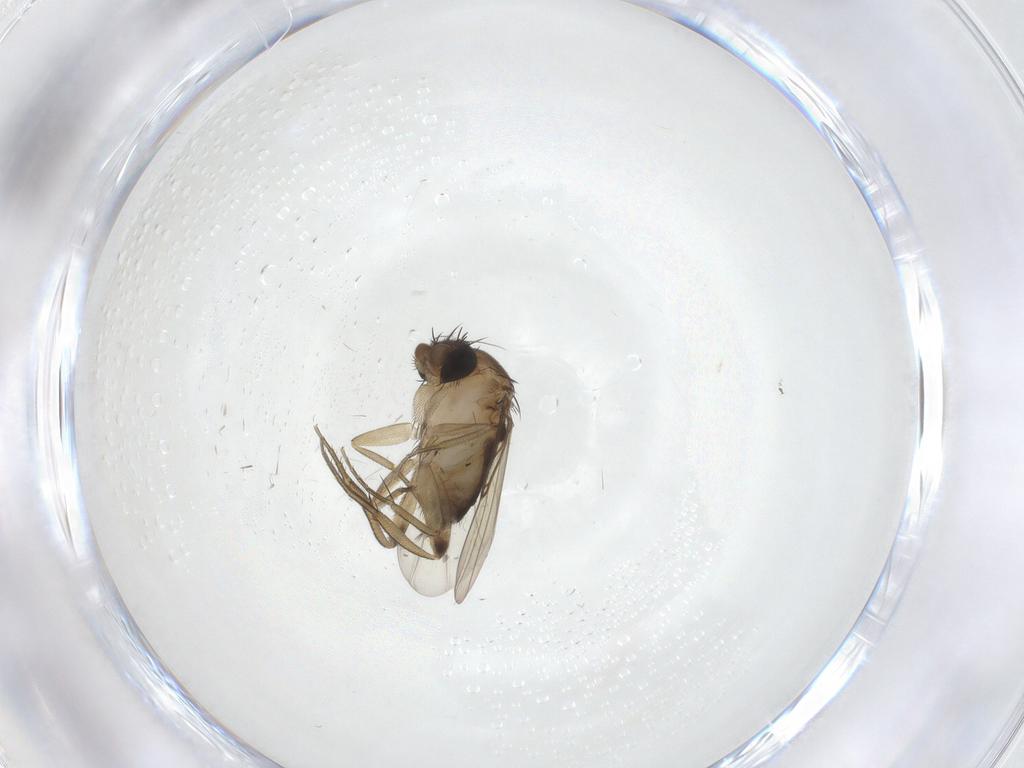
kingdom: Animalia
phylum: Arthropoda
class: Insecta
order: Diptera
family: Phoridae
